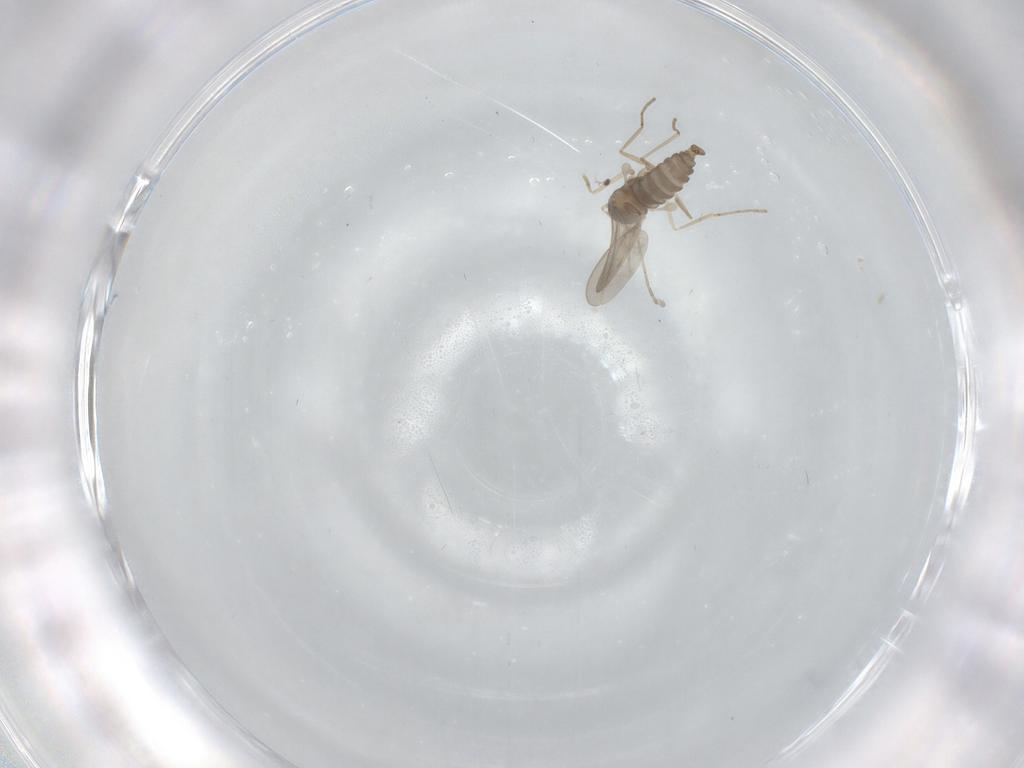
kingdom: Animalia
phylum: Arthropoda
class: Insecta
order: Diptera
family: Cecidomyiidae
